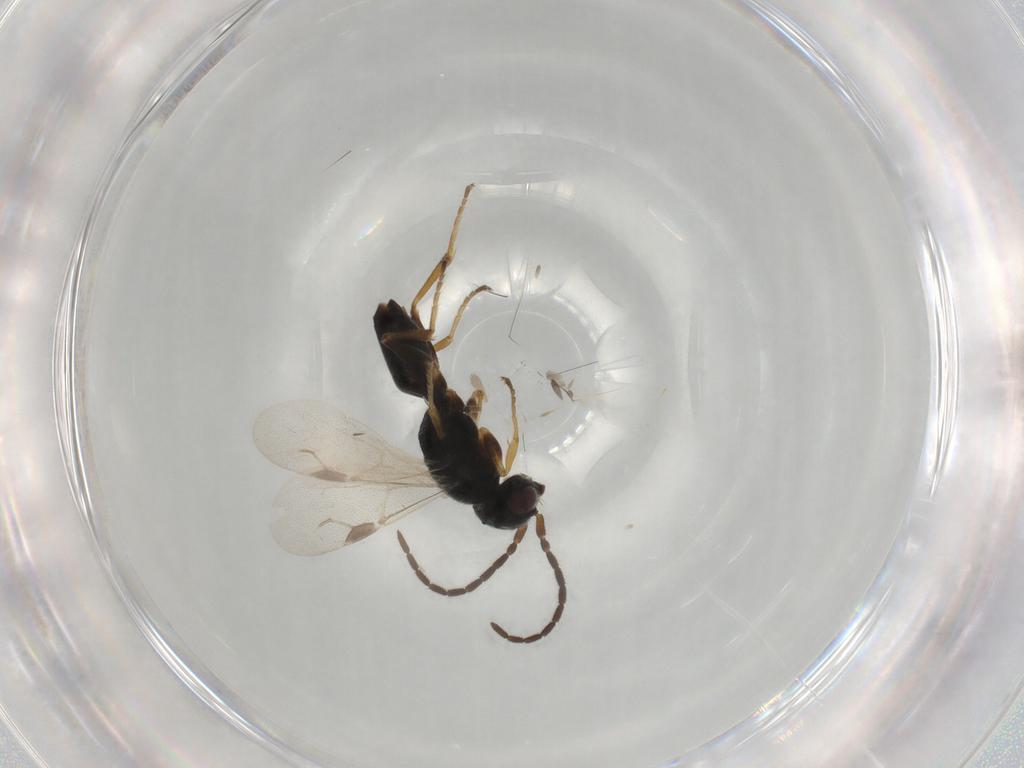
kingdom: Animalia
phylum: Arthropoda
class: Insecta
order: Hymenoptera
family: Dryinidae
